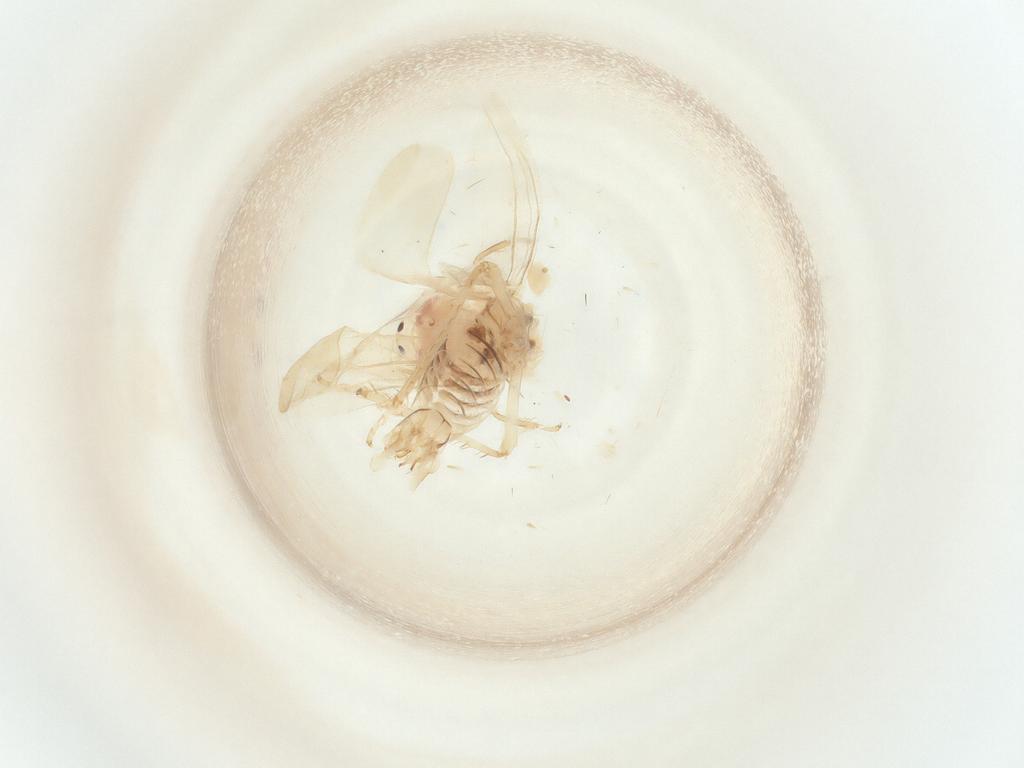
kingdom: Animalia
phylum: Arthropoda
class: Insecta
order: Hemiptera
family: Cicadellidae
